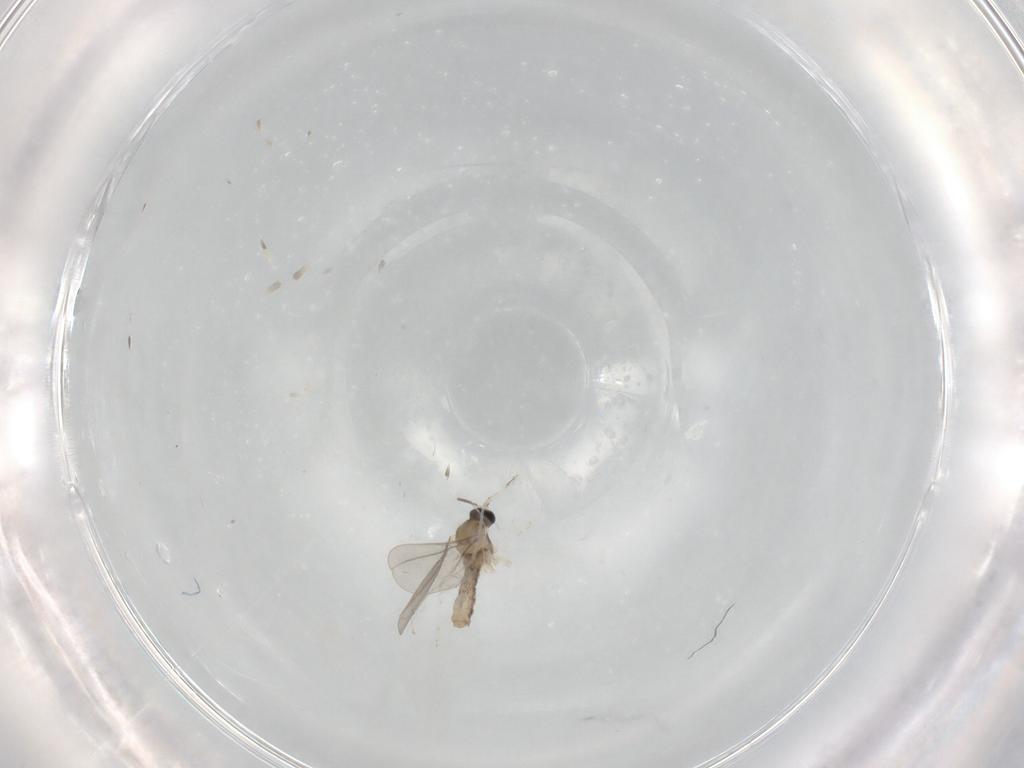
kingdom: Animalia
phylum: Arthropoda
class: Insecta
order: Diptera
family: Cecidomyiidae
